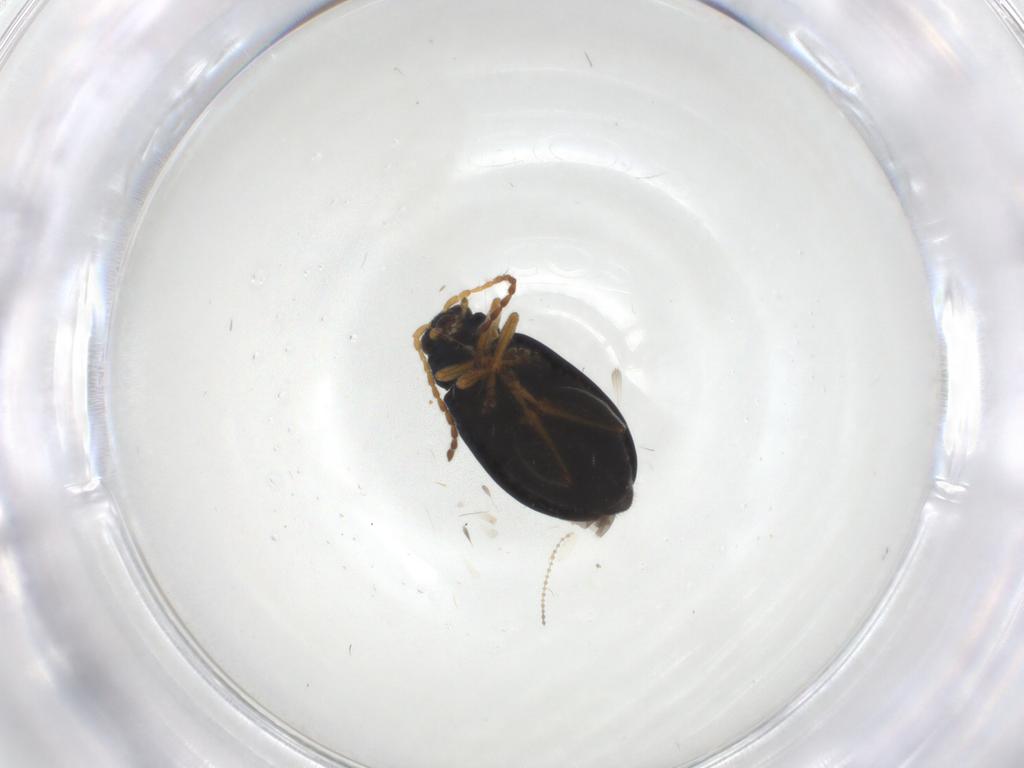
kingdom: Animalia
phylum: Arthropoda
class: Insecta
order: Coleoptera
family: Chrysomelidae
